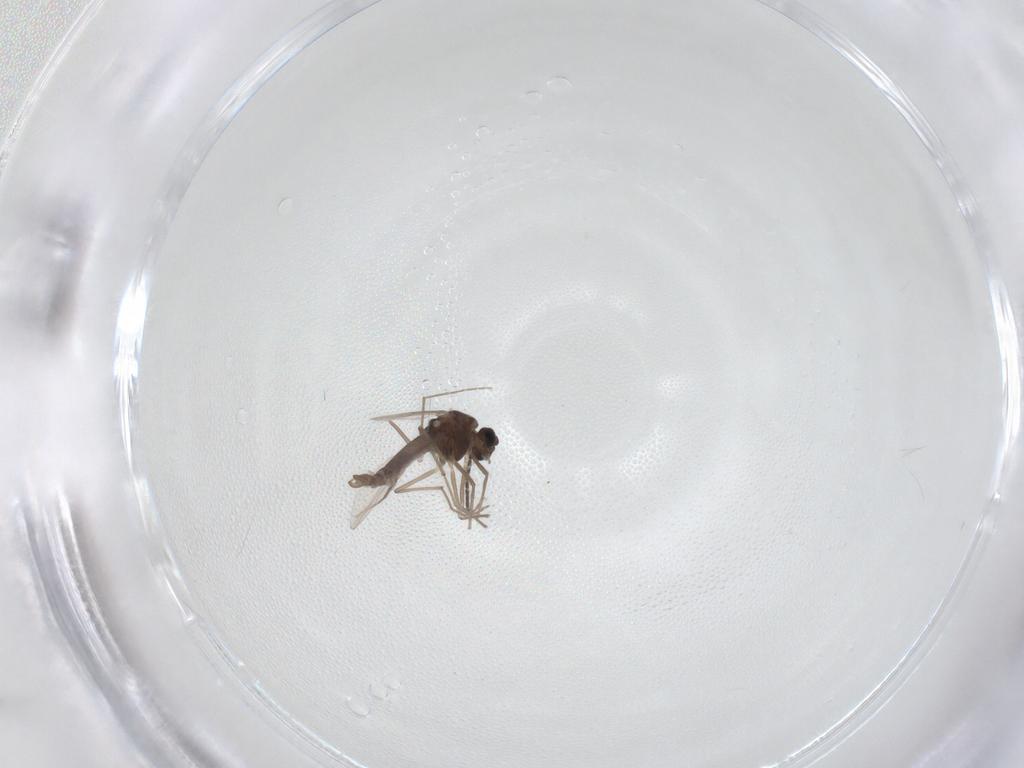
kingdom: Animalia
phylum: Arthropoda
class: Insecta
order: Diptera
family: Chironomidae
